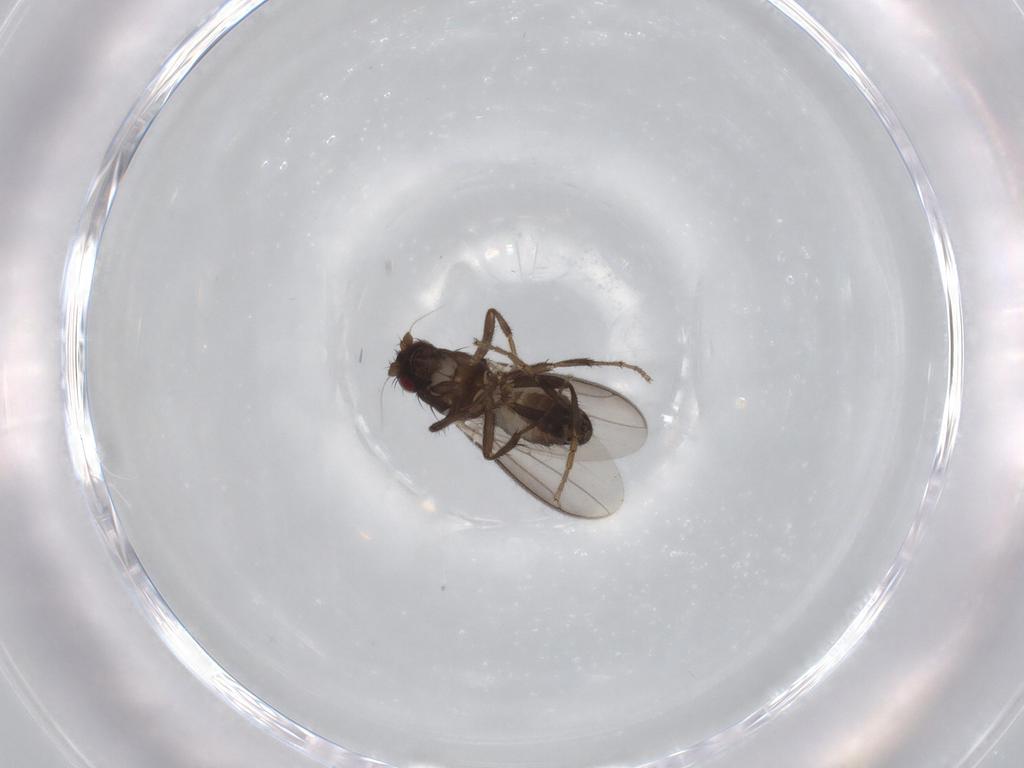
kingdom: Animalia
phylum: Arthropoda
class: Insecta
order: Diptera
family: Sphaeroceridae
